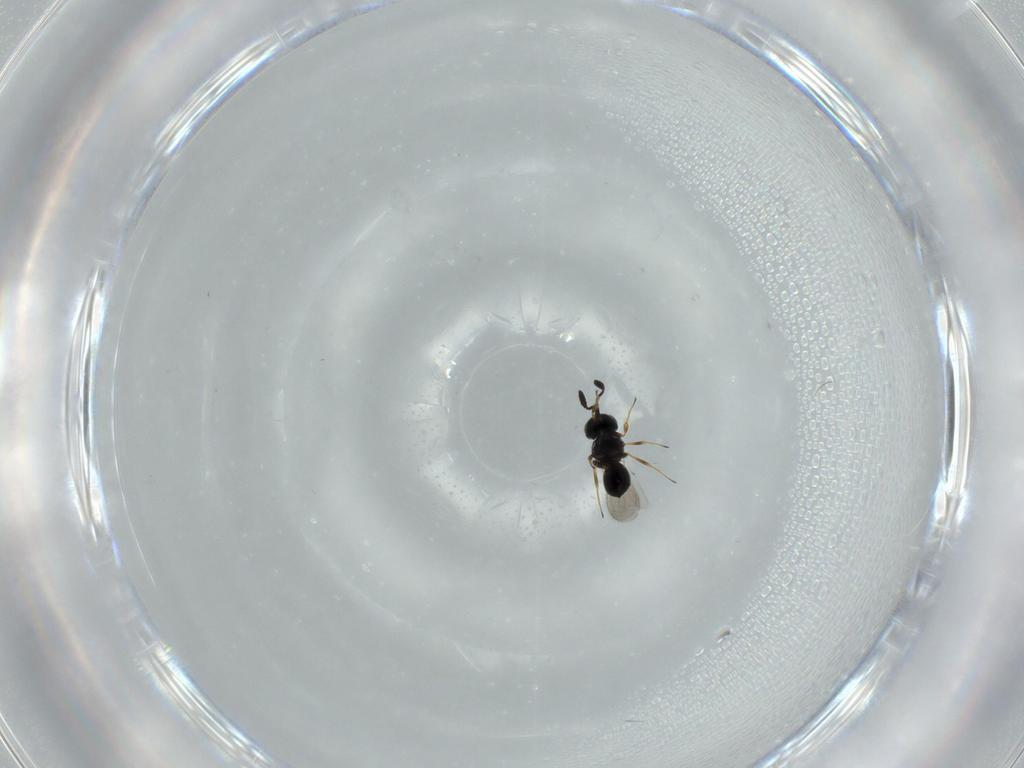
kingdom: Animalia
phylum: Arthropoda
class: Insecta
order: Hymenoptera
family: Scelionidae
